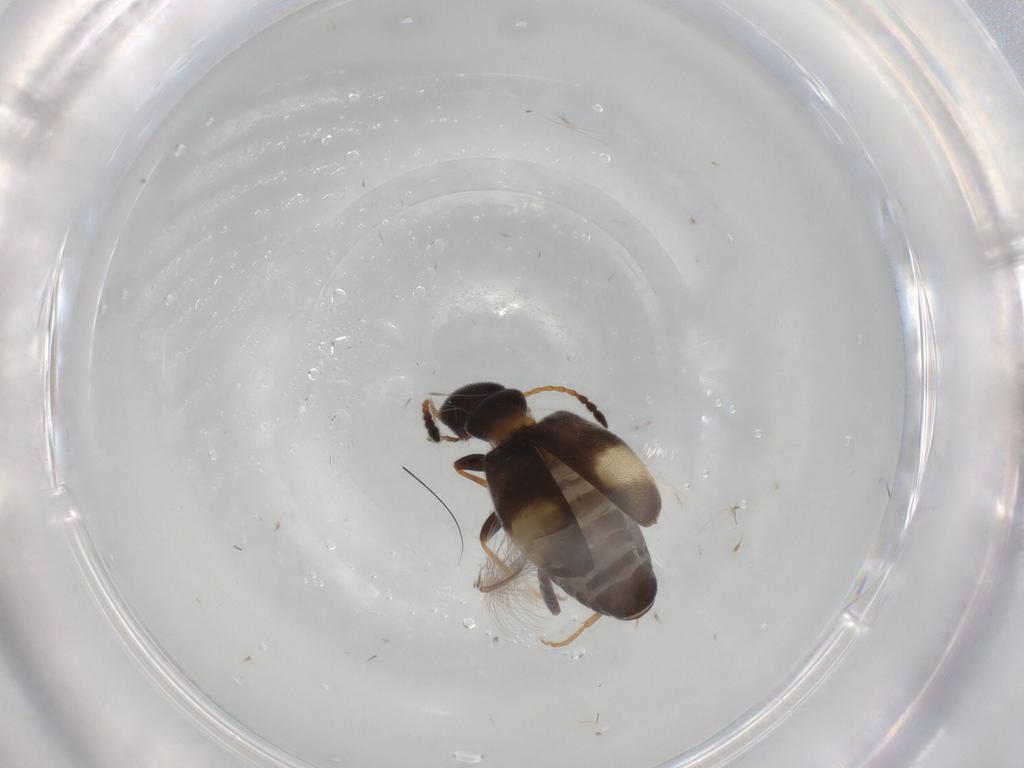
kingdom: Animalia
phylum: Arthropoda
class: Insecta
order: Coleoptera
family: Anthicidae
